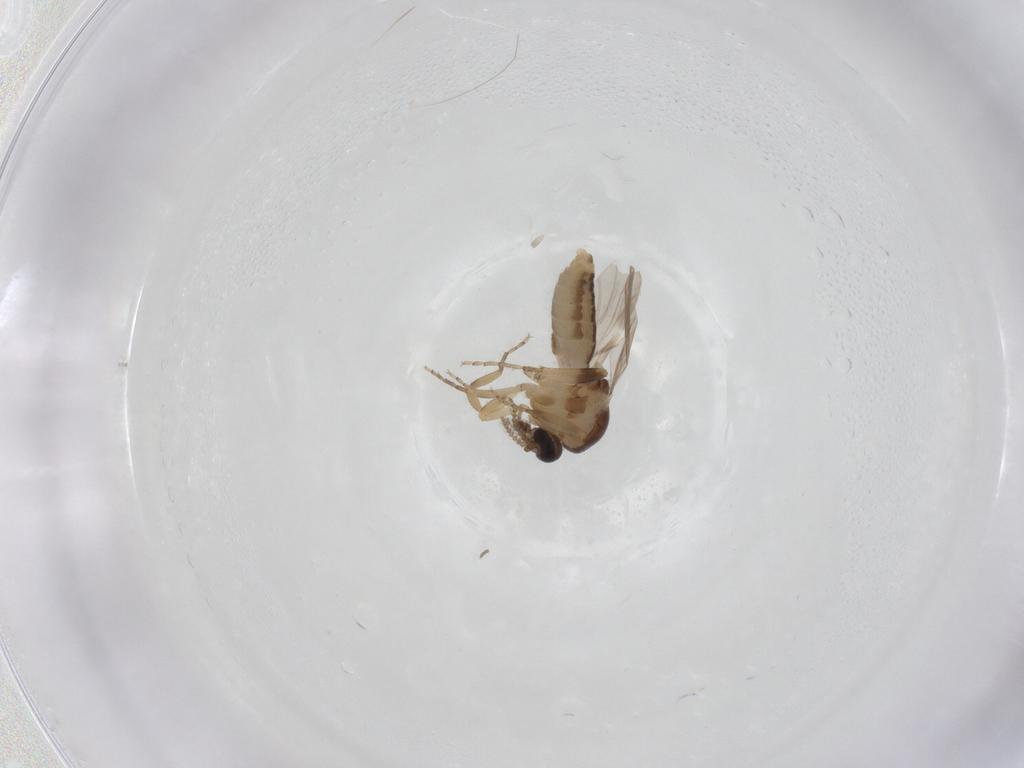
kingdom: Animalia
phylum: Arthropoda
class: Insecta
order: Diptera
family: Ceratopogonidae
